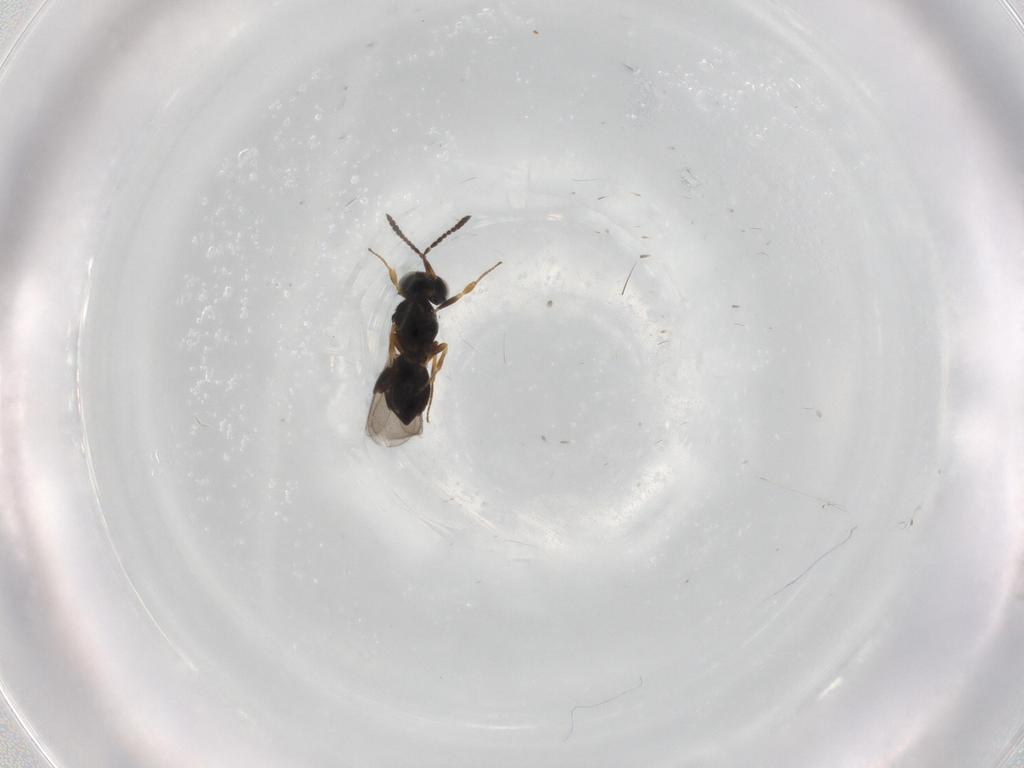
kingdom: Animalia
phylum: Arthropoda
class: Insecta
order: Hymenoptera
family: Scelionidae
